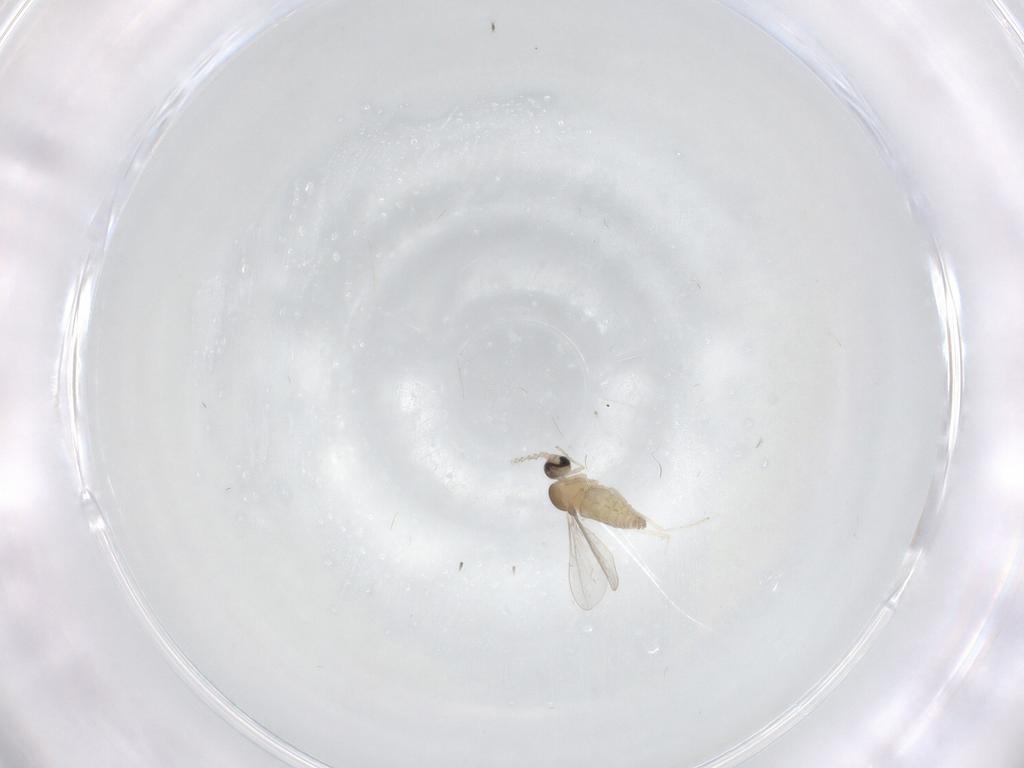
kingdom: Animalia
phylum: Arthropoda
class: Insecta
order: Diptera
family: Cecidomyiidae
